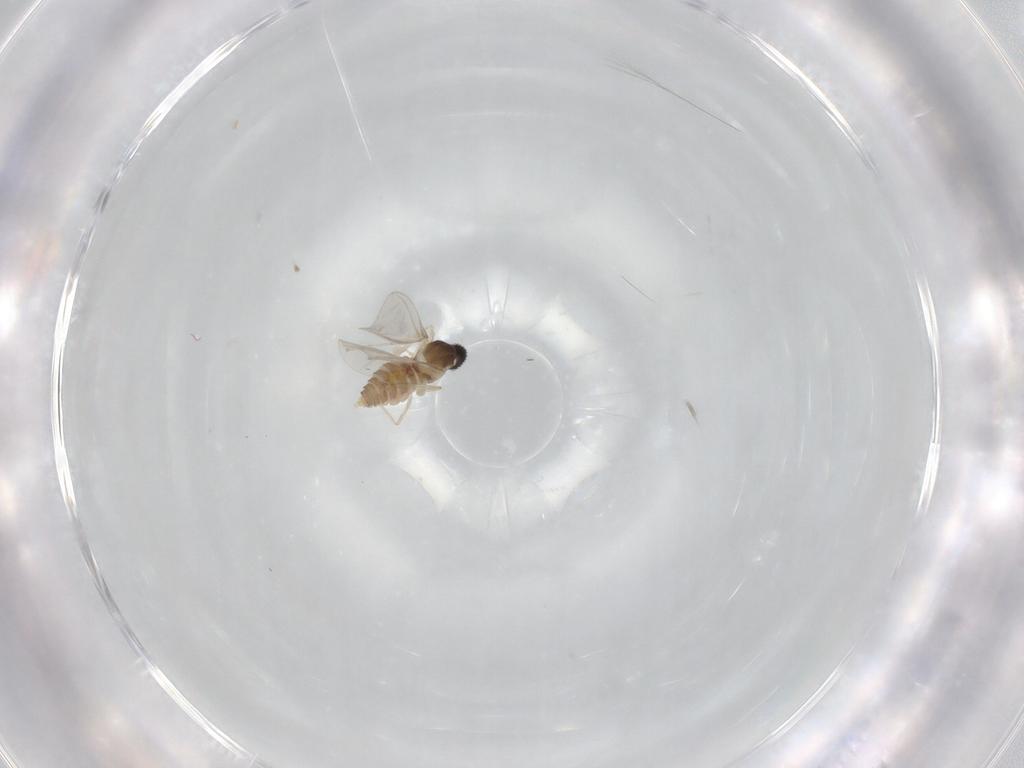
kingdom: Animalia
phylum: Arthropoda
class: Insecta
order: Diptera
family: Cecidomyiidae
